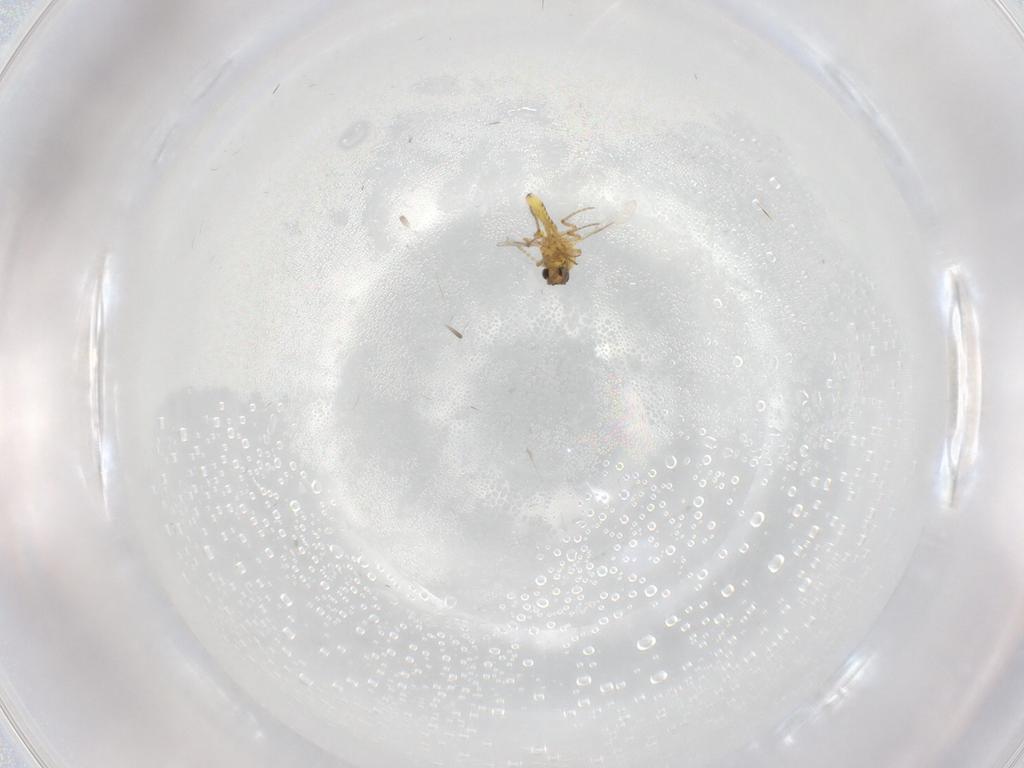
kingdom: Animalia
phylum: Arthropoda
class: Insecta
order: Diptera
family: Ceratopogonidae
